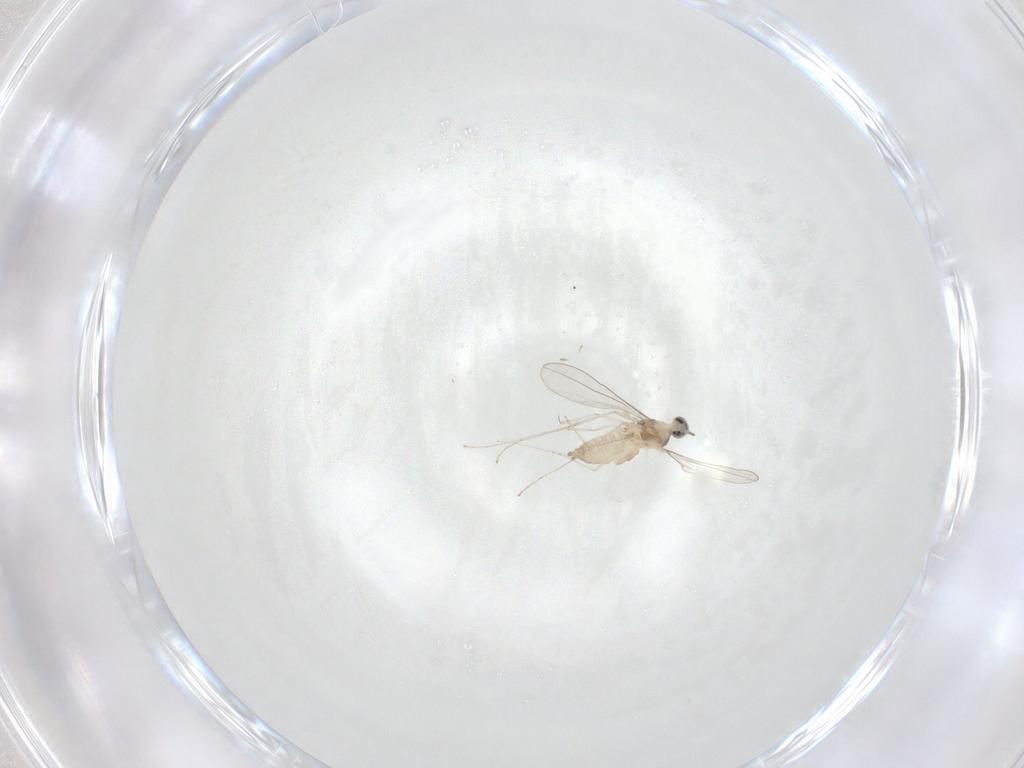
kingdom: Animalia
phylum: Arthropoda
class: Insecta
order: Diptera
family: Cecidomyiidae
